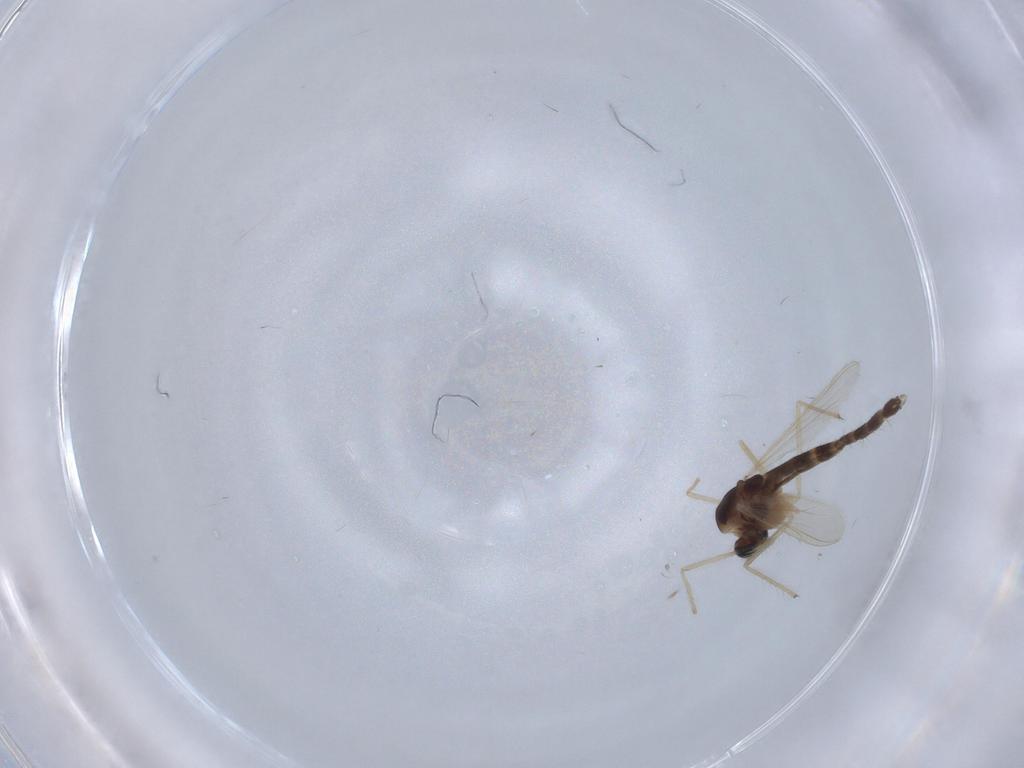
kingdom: Animalia
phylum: Arthropoda
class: Insecta
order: Diptera
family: Chironomidae
